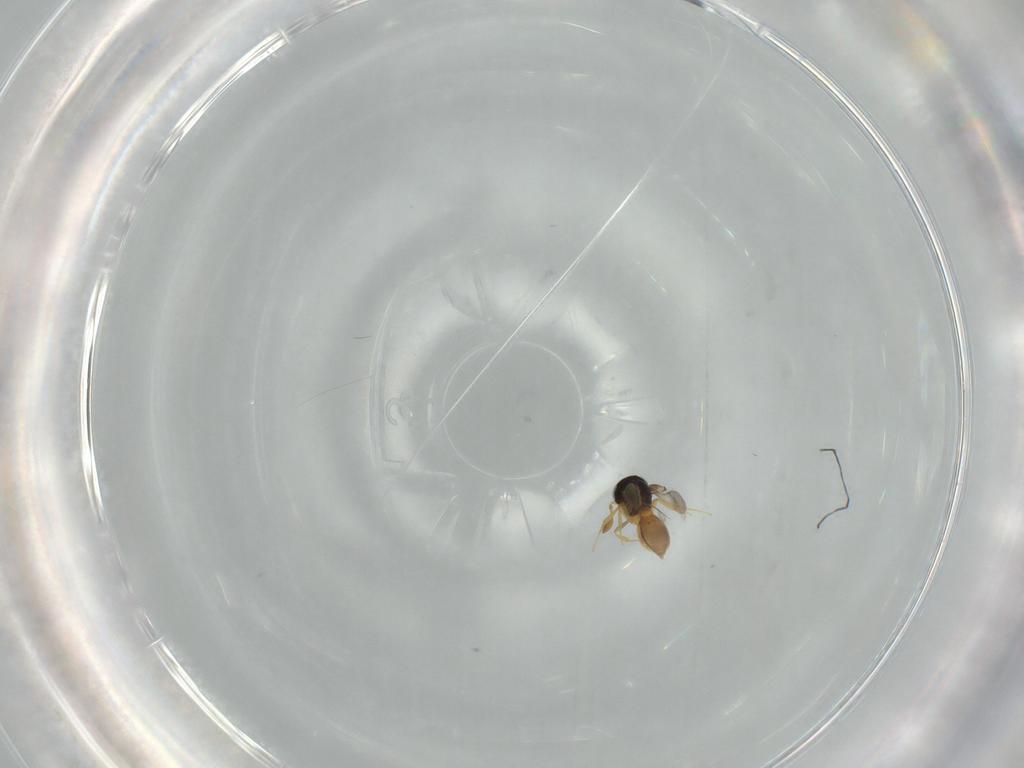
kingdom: Animalia
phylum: Arthropoda
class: Insecta
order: Hymenoptera
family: Scelionidae
